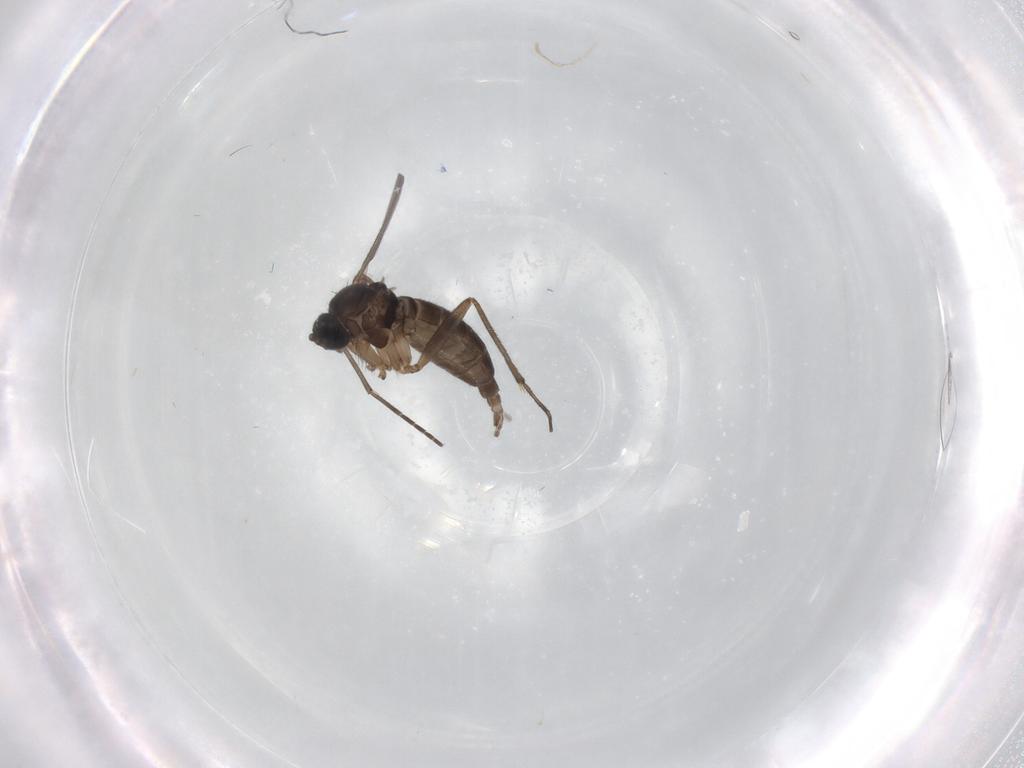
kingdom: Animalia
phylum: Arthropoda
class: Insecta
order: Diptera
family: Sciaridae
